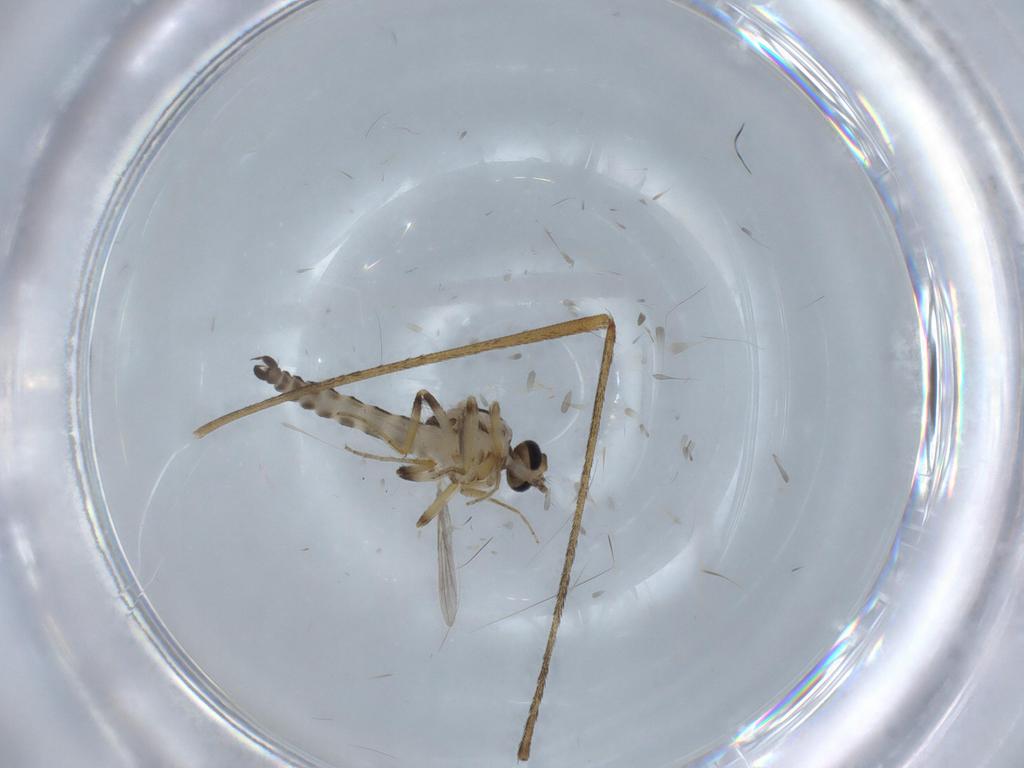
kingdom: Animalia
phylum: Arthropoda
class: Insecta
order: Diptera
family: Ceratopogonidae
